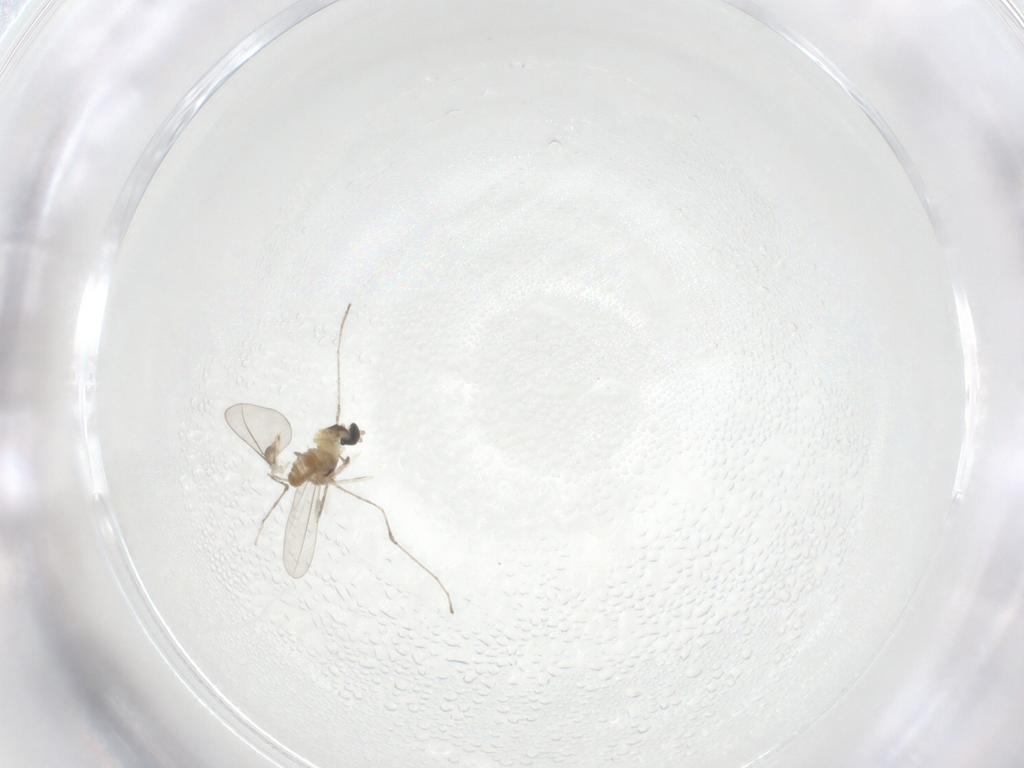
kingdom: Animalia
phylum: Arthropoda
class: Insecta
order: Diptera
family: Cecidomyiidae
